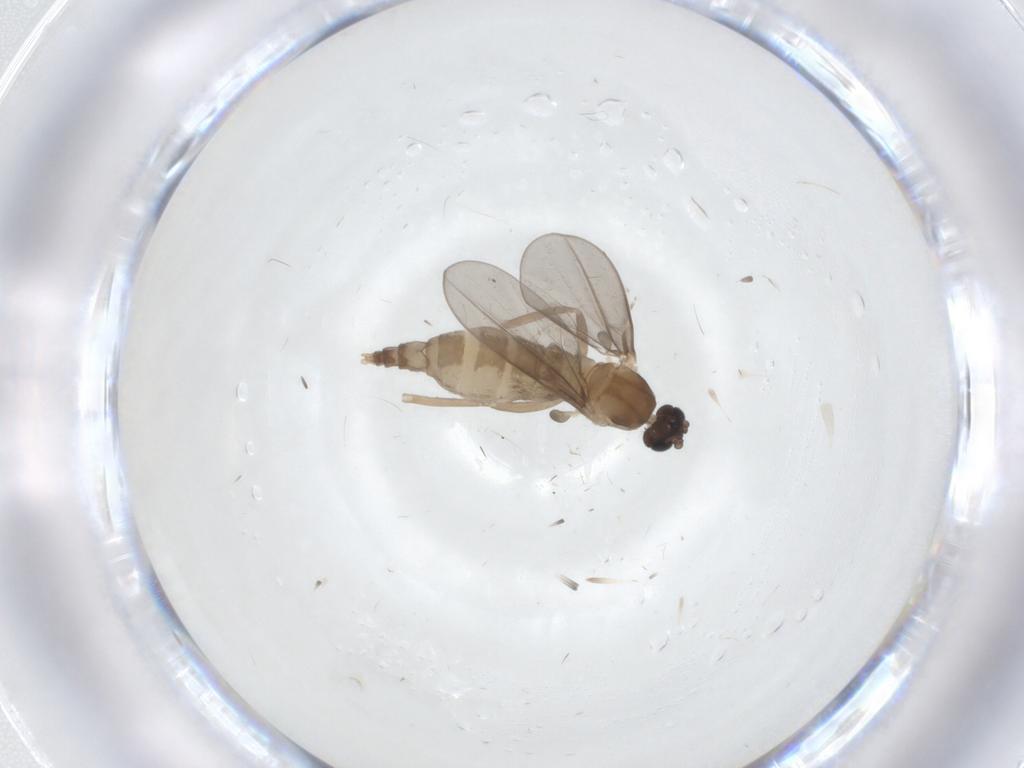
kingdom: Animalia
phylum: Arthropoda
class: Insecta
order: Diptera
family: Cecidomyiidae
